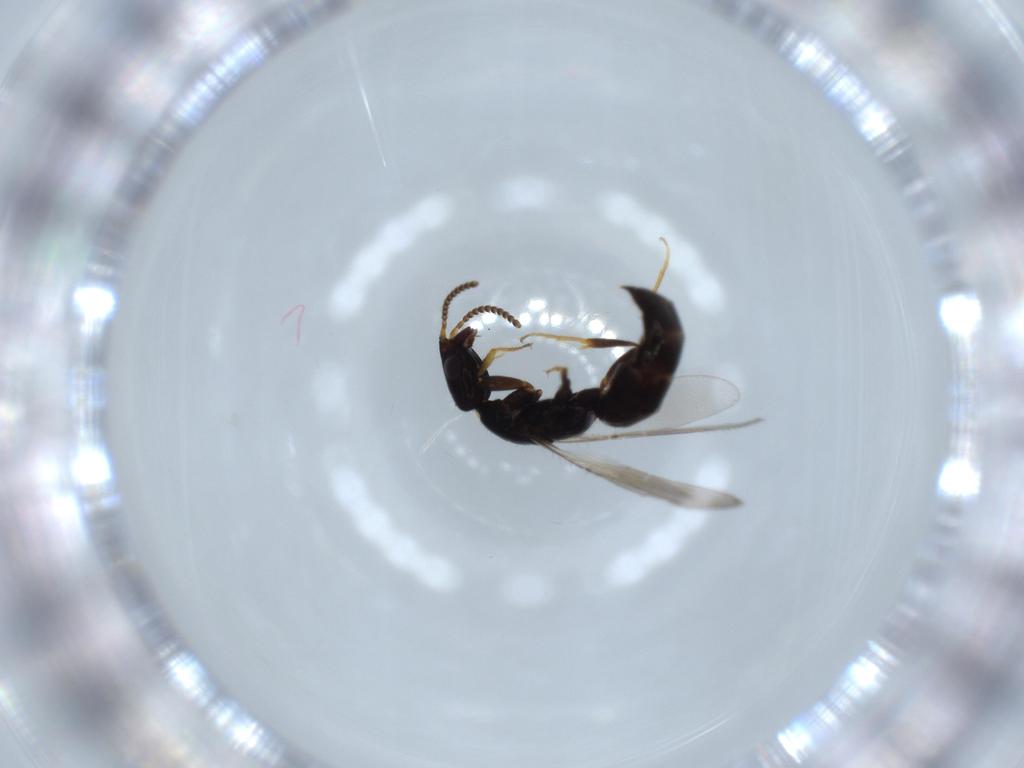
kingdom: Animalia
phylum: Arthropoda
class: Insecta
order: Hymenoptera
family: Bethylidae
